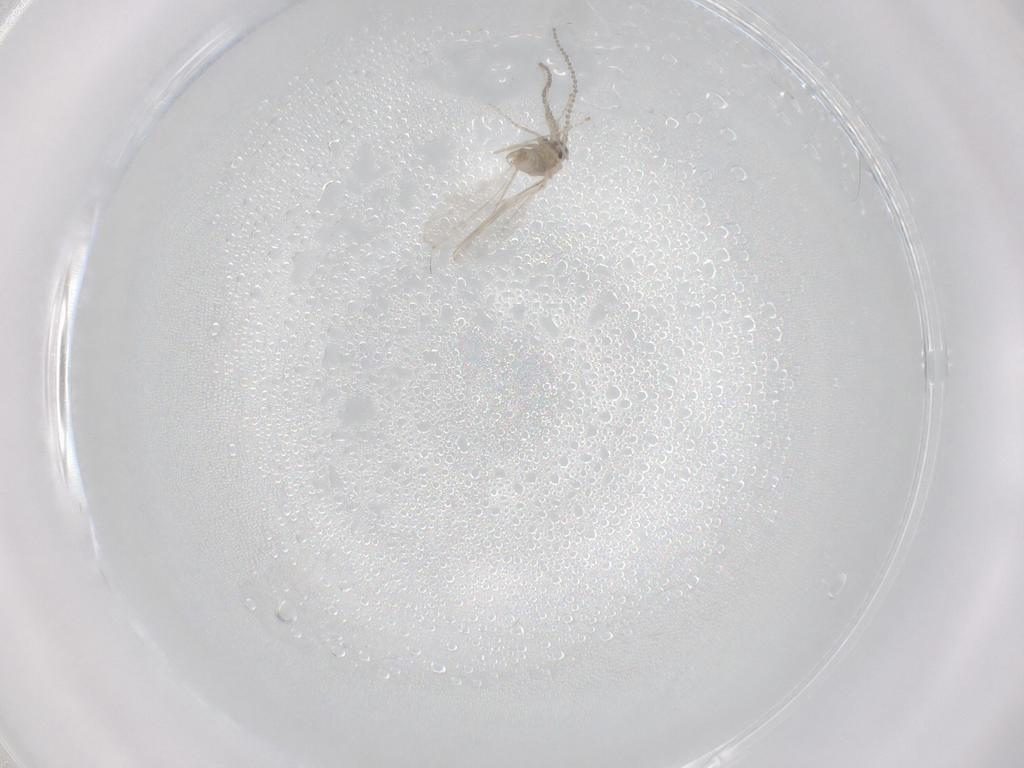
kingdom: Animalia
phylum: Arthropoda
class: Insecta
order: Diptera
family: Cecidomyiidae
